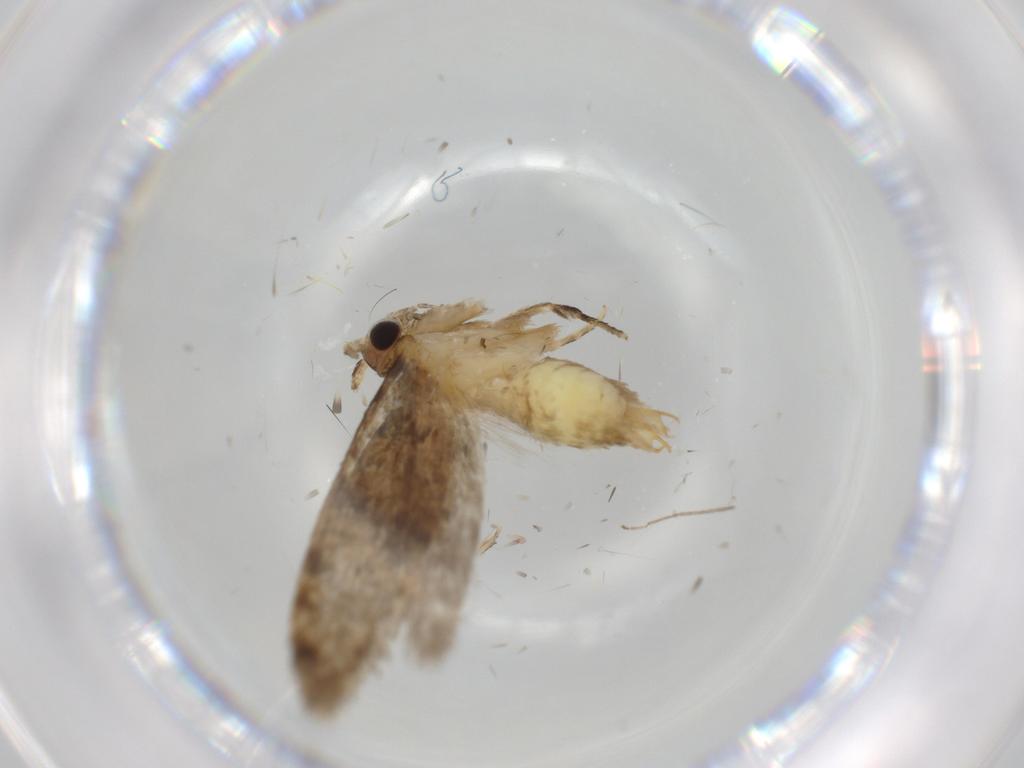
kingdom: Animalia
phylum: Arthropoda
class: Insecta
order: Lepidoptera
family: Tineidae
